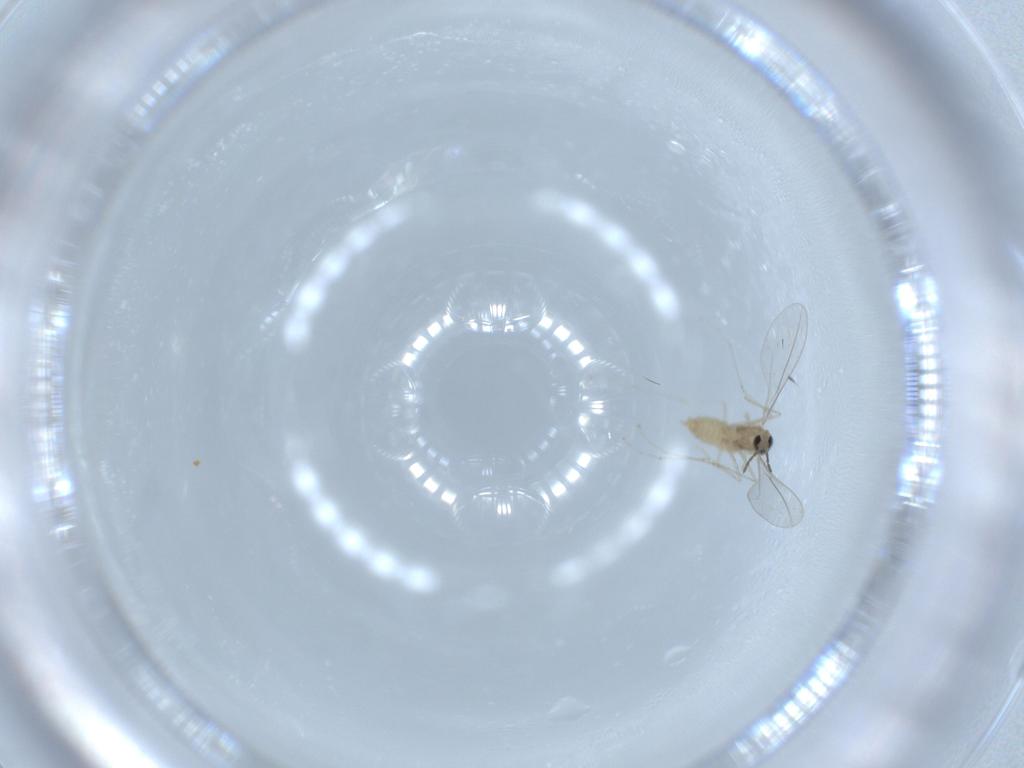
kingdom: Animalia
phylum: Arthropoda
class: Insecta
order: Diptera
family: Cecidomyiidae
